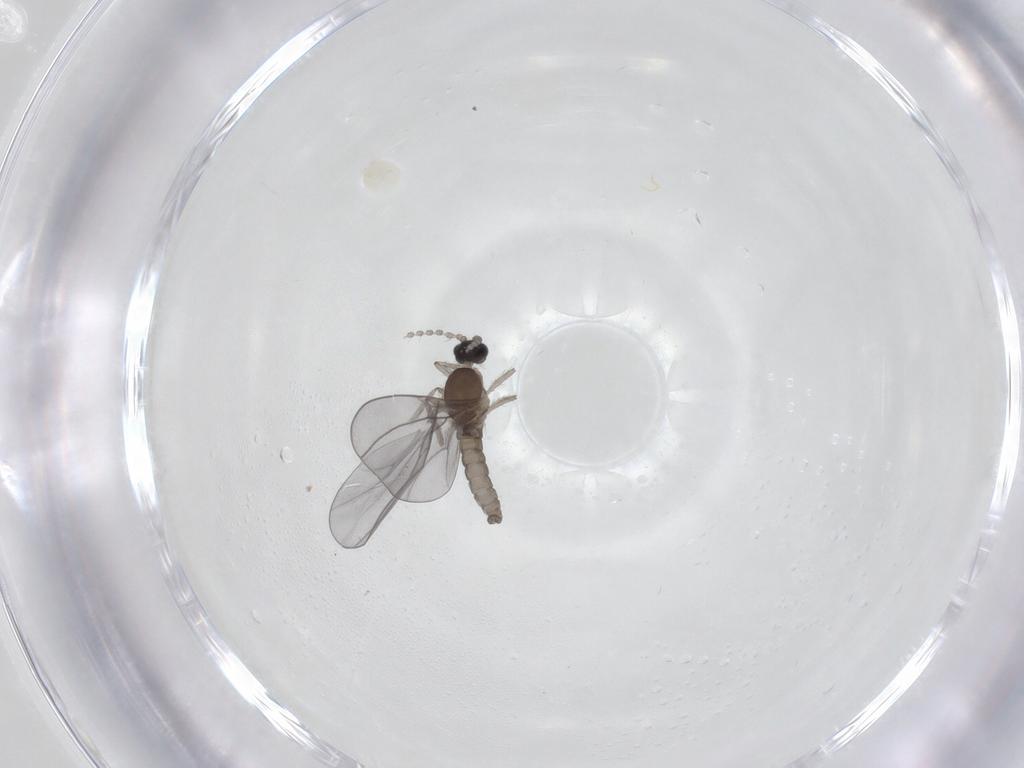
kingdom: Animalia
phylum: Arthropoda
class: Insecta
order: Diptera
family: Cecidomyiidae
